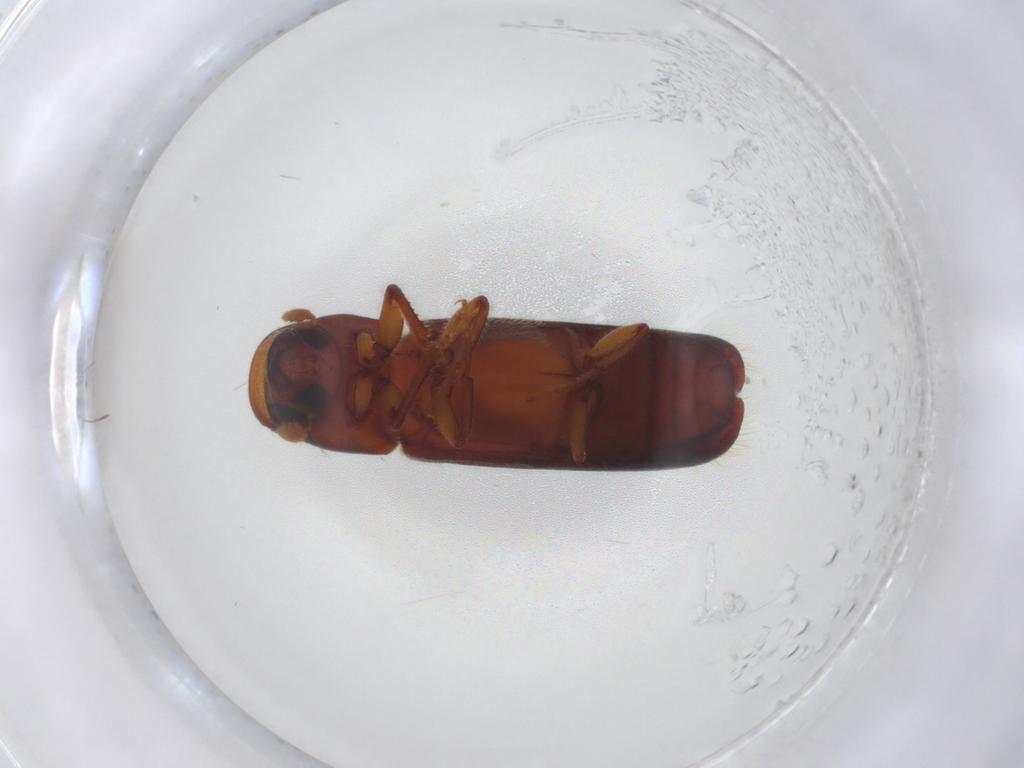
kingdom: Animalia
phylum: Arthropoda
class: Insecta
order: Coleoptera
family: Curculionidae
